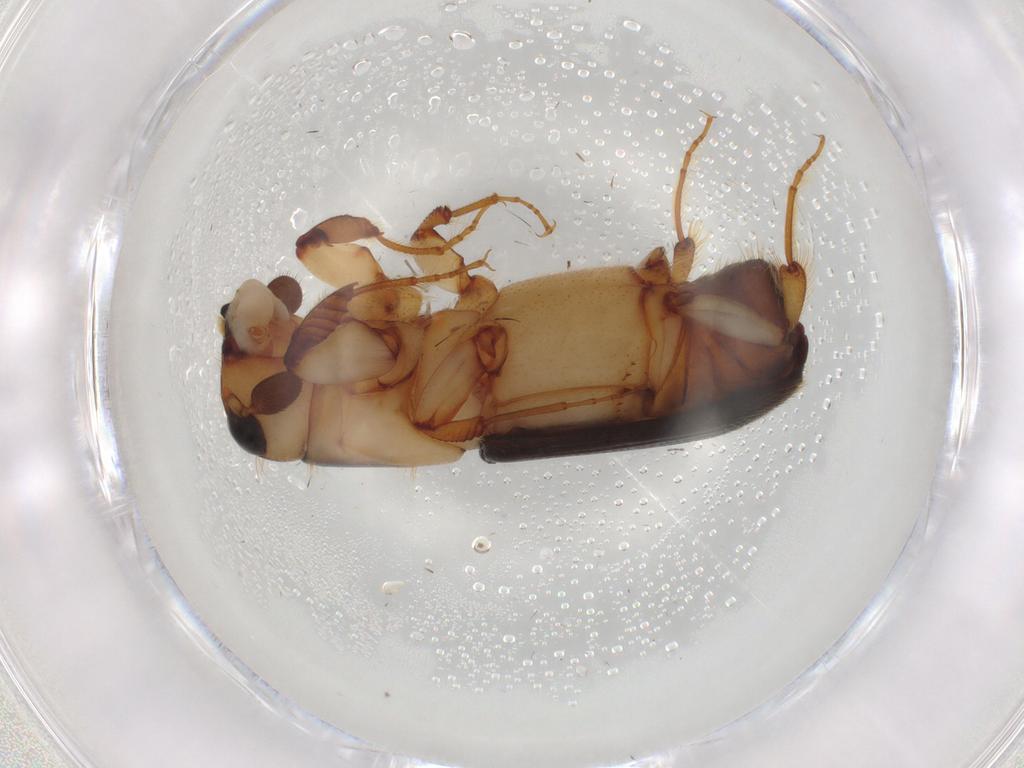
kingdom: Animalia
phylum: Arthropoda
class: Insecta
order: Coleoptera
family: Curculionidae
